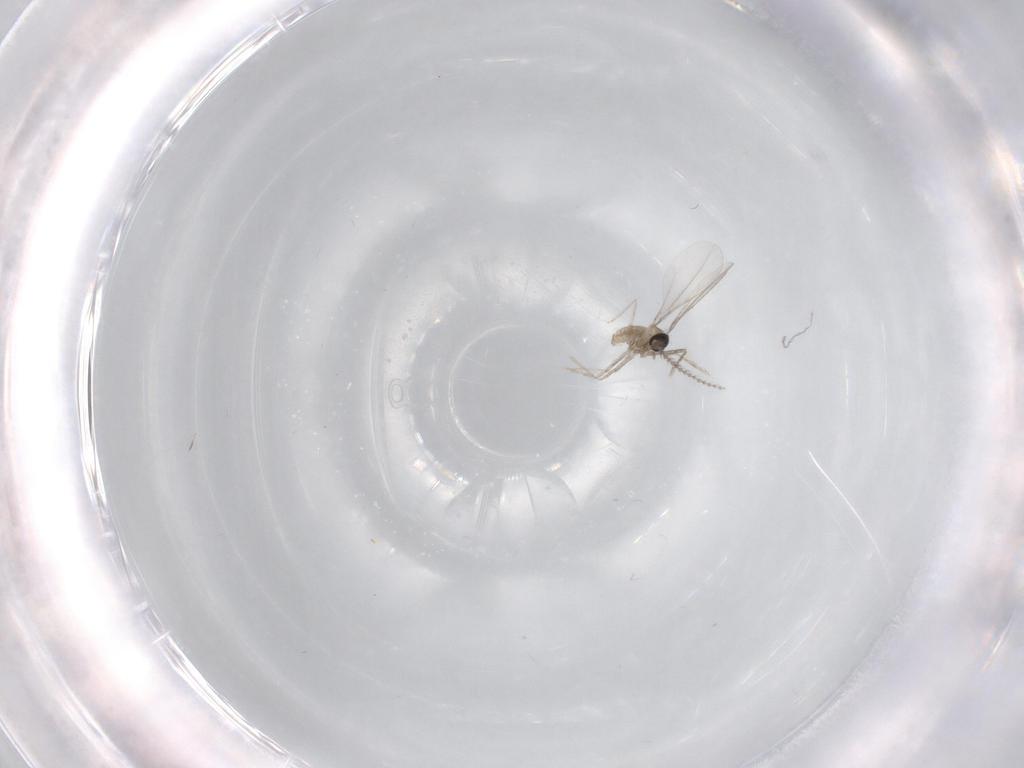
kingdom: Animalia
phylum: Arthropoda
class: Insecta
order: Diptera
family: Cecidomyiidae
